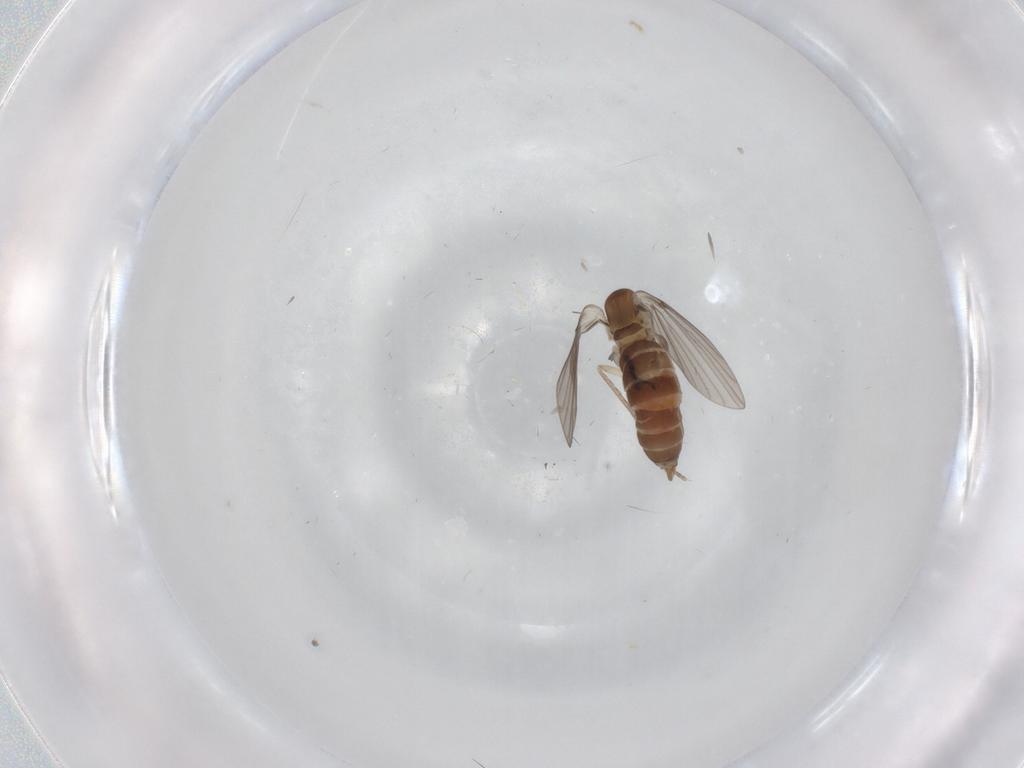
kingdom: Animalia
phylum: Arthropoda
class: Insecta
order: Diptera
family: Phoridae
